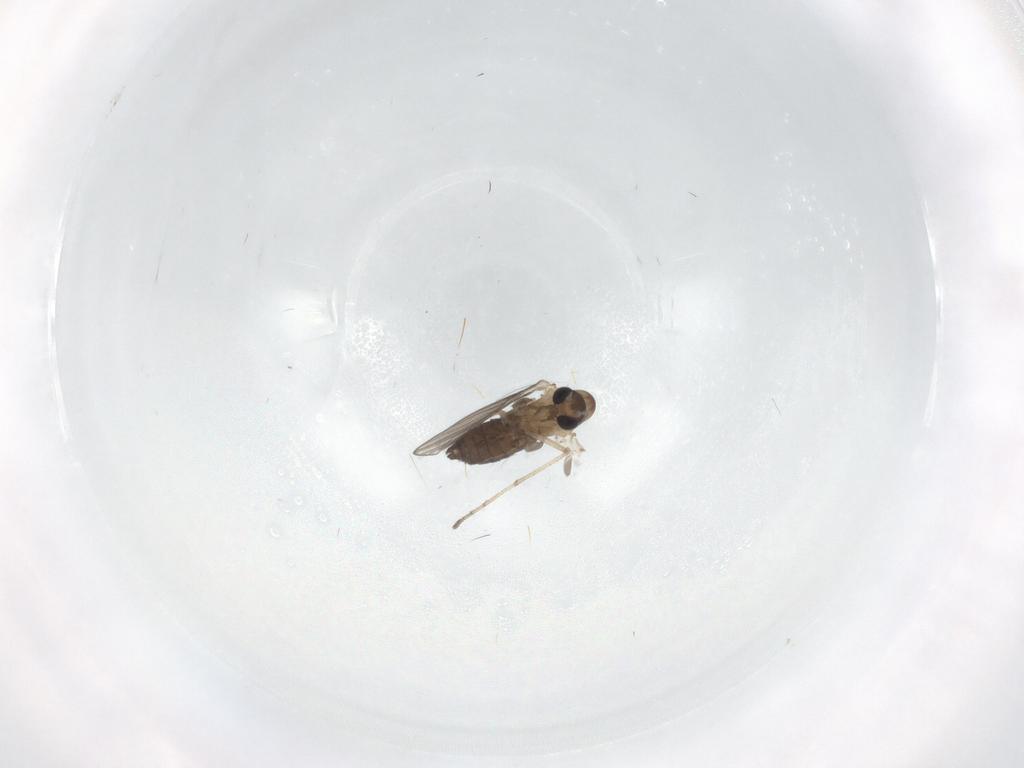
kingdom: Animalia
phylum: Arthropoda
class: Insecta
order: Diptera
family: Psychodidae
